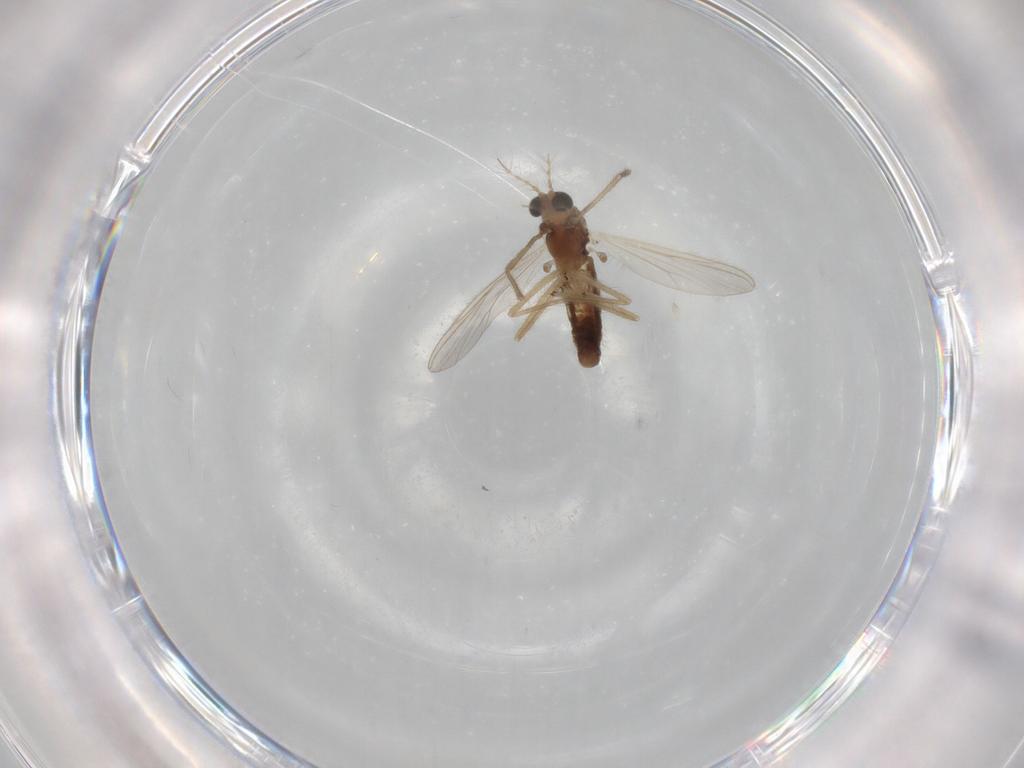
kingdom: Animalia
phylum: Arthropoda
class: Insecta
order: Diptera
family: Chironomidae
